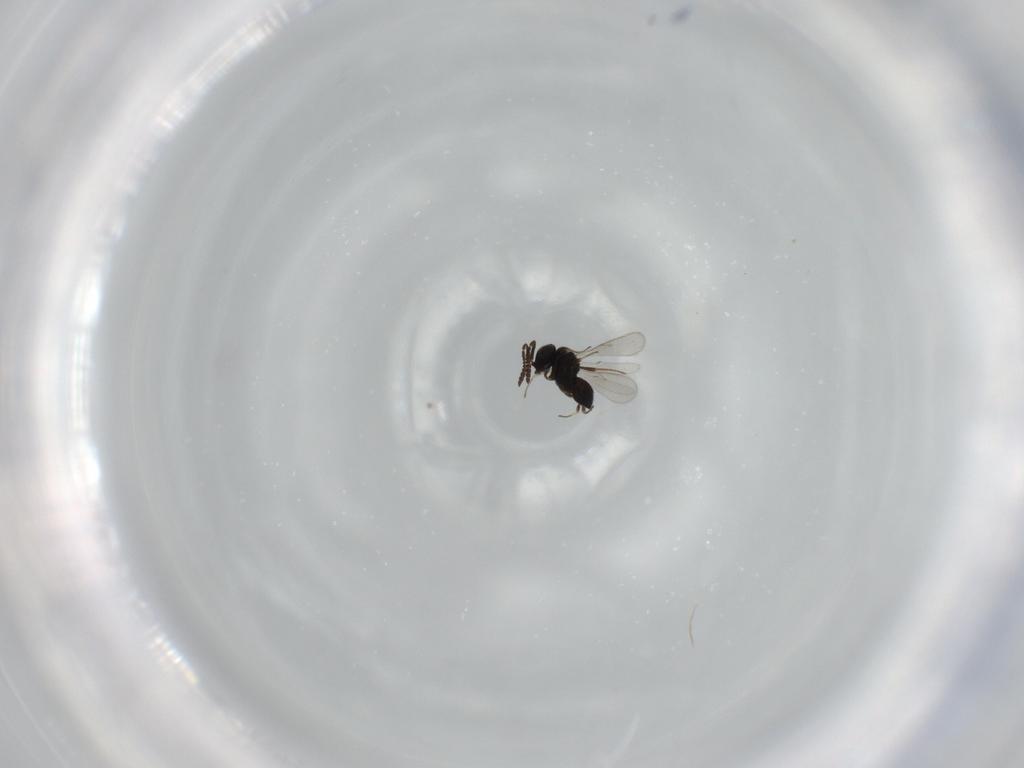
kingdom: Animalia
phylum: Arthropoda
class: Insecta
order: Hymenoptera
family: Scelionidae
